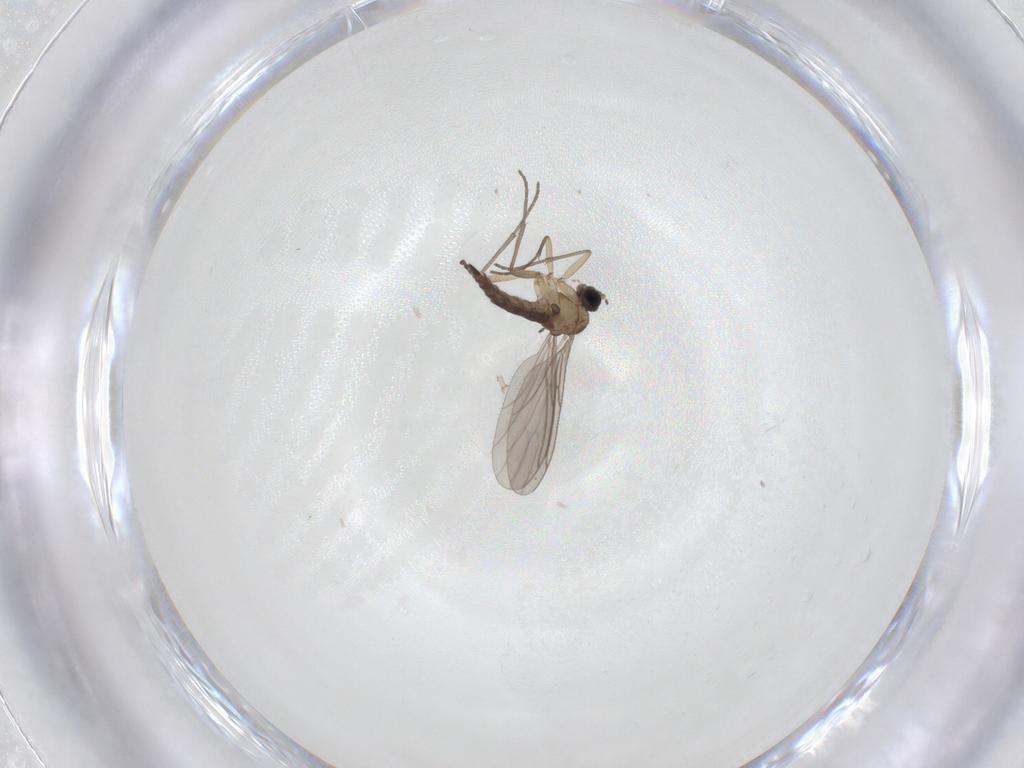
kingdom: Animalia
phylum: Arthropoda
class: Insecta
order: Diptera
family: Sciaridae
